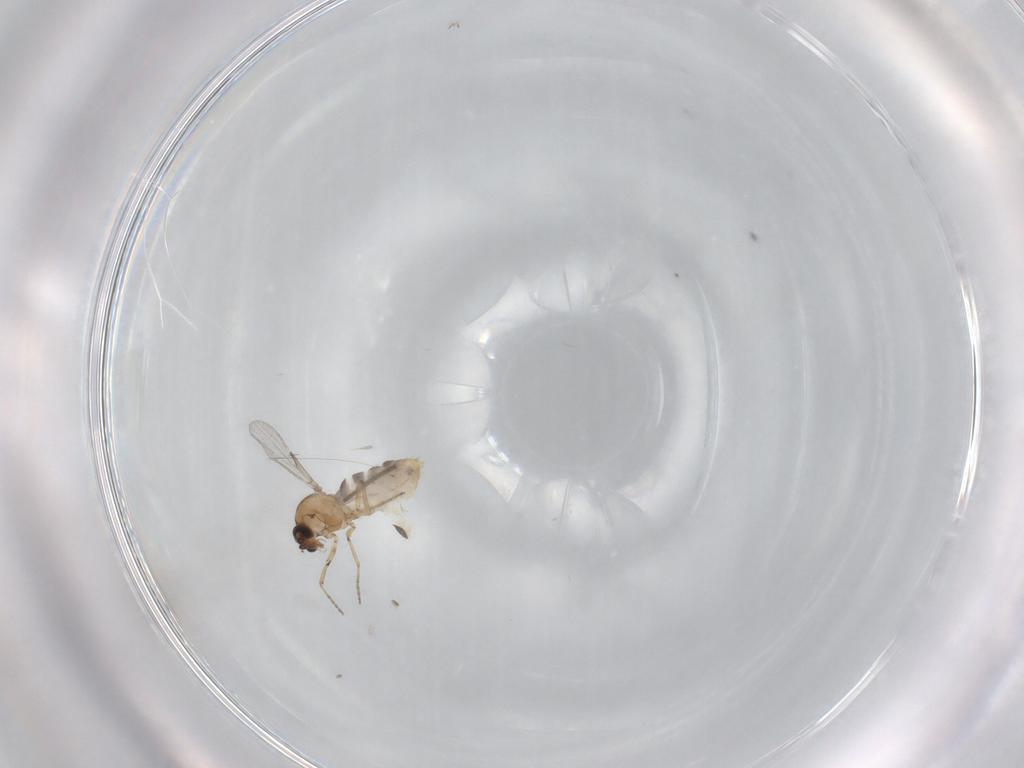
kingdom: Animalia
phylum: Arthropoda
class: Insecta
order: Diptera
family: Ceratopogonidae
